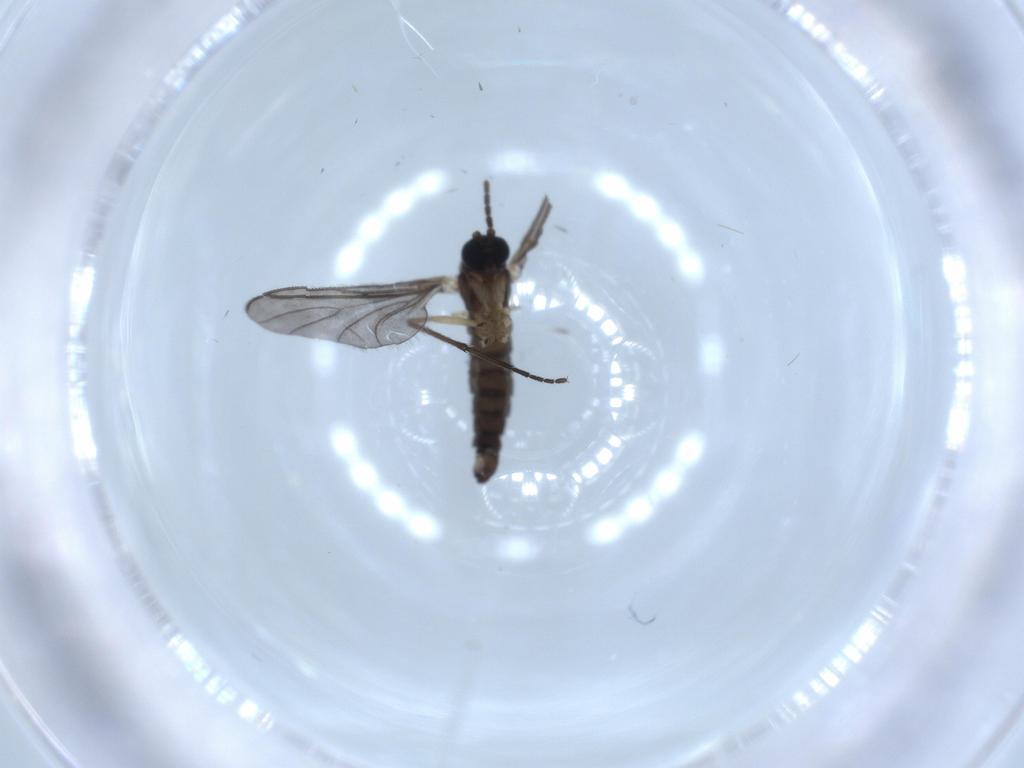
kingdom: Animalia
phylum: Arthropoda
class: Insecta
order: Diptera
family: Sciaridae
